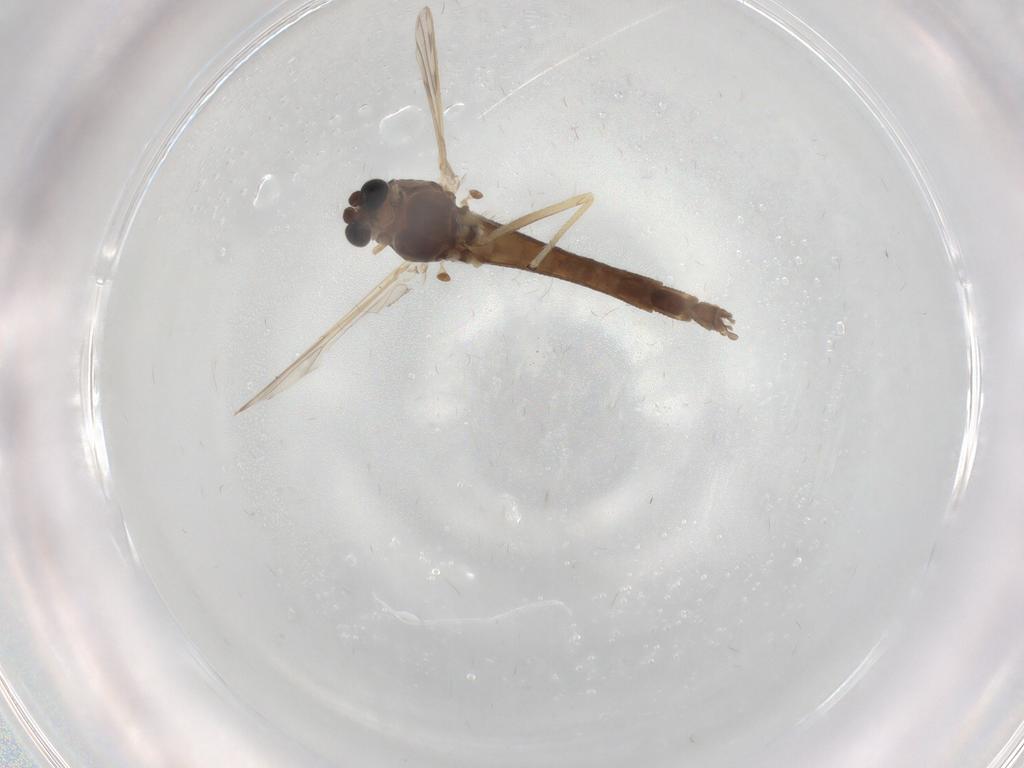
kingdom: Animalia
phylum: Arthropoda
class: Insecta
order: Diptera
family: Chironomidae
